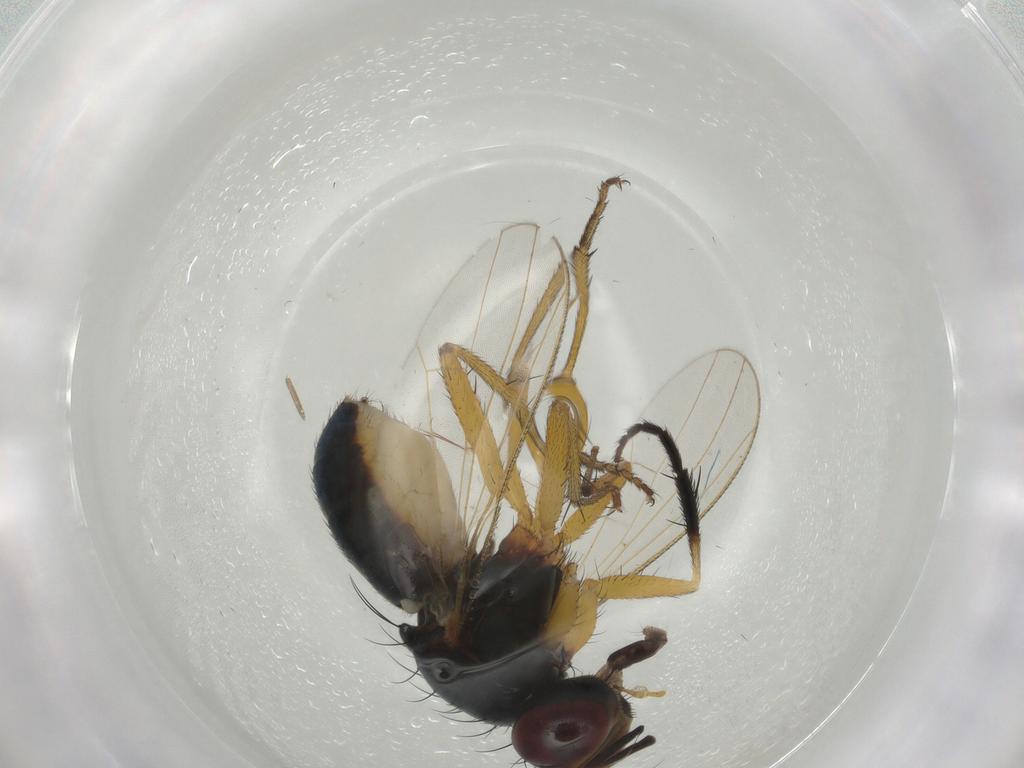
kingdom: Animalia
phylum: Arthropoda
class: Insecta
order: Diptera
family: Muscidae
